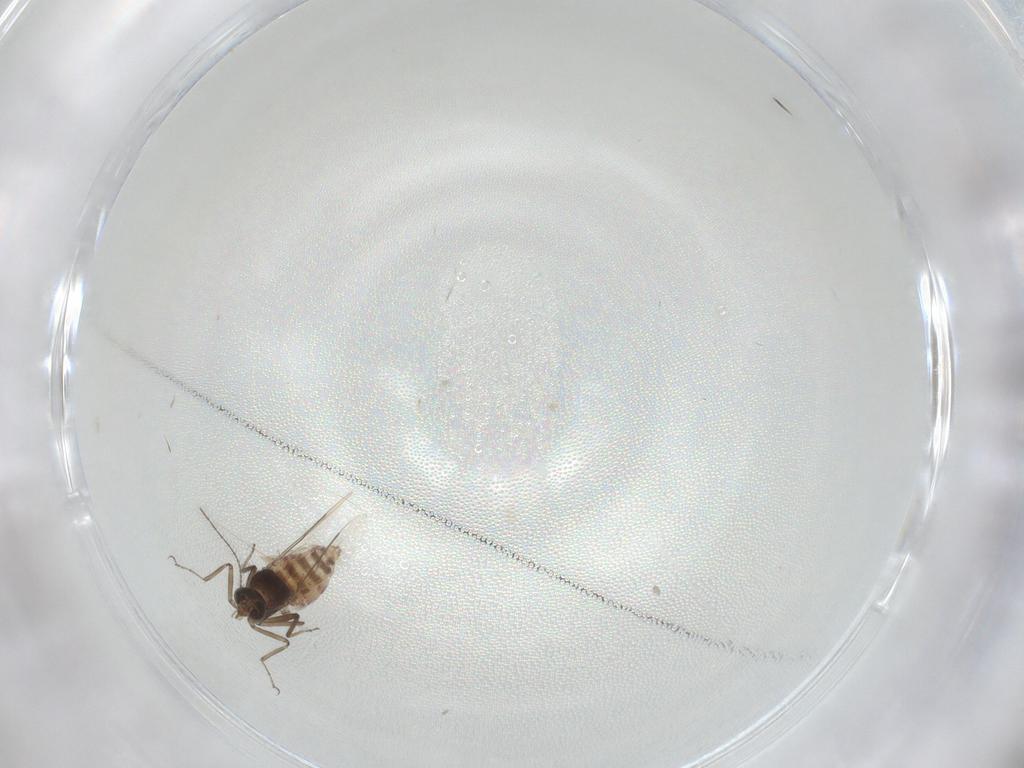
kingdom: Animalia
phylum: Arthropoda
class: Insecta
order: Diptera
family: Ceratopogonidae
